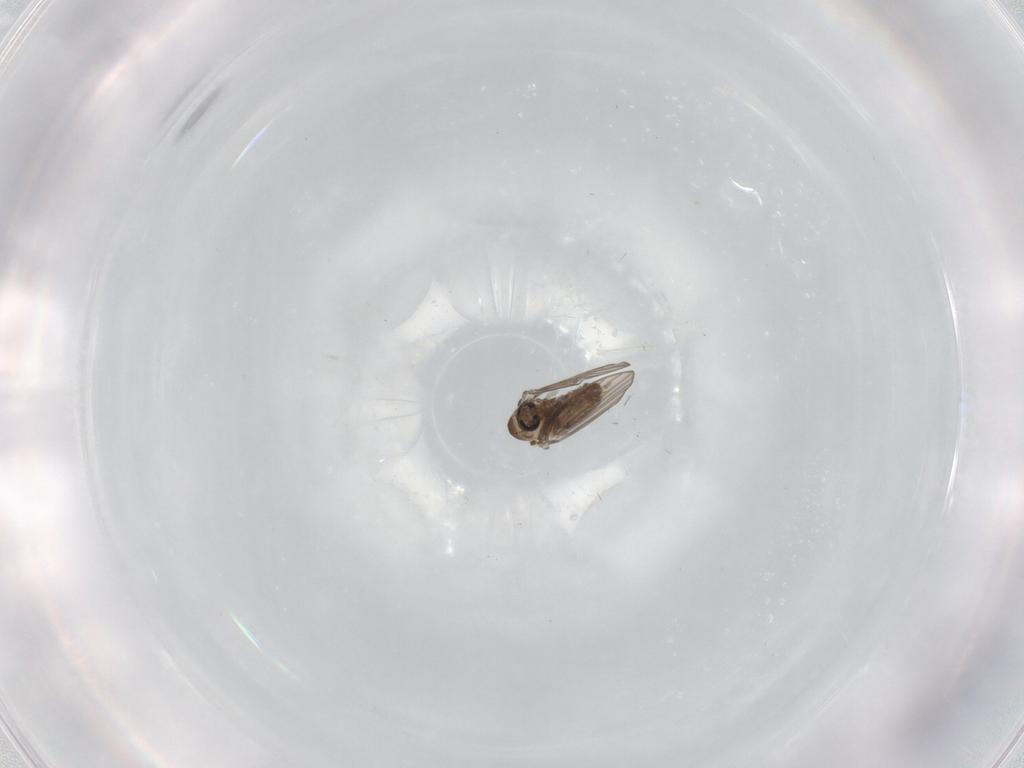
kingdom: Animalia
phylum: Arthropoda
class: Insecta
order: Diptera
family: Psychodidae
